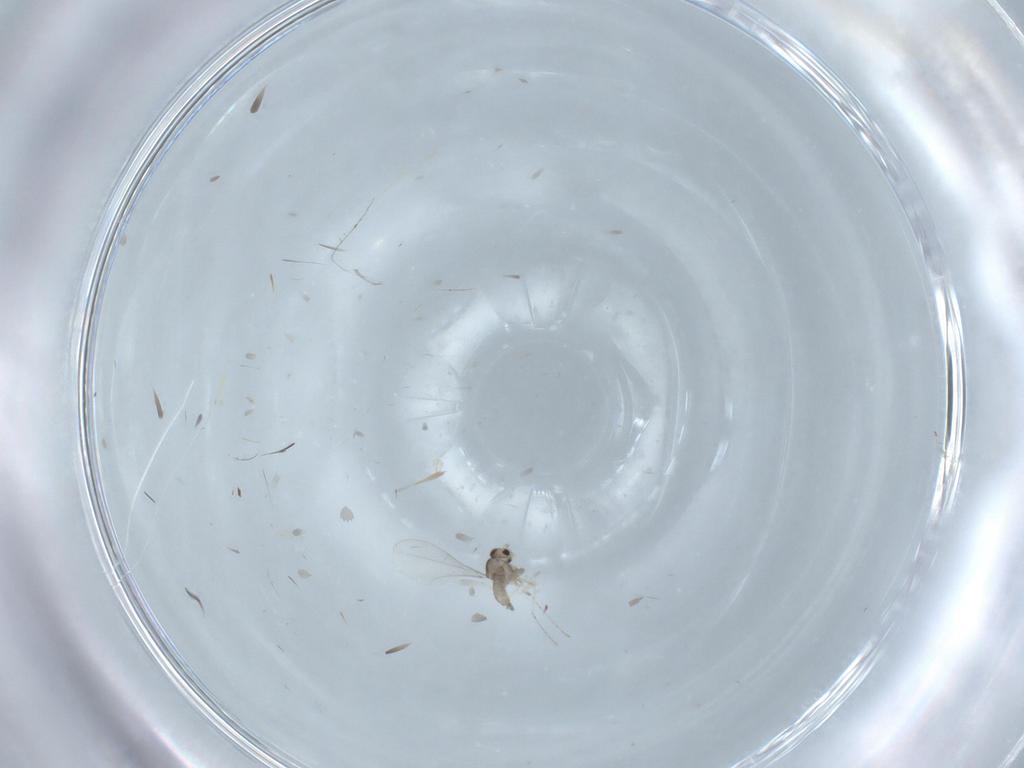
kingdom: Animalia
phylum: Arthropoda
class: Insecta
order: Diptera
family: Cecidomyiidae
